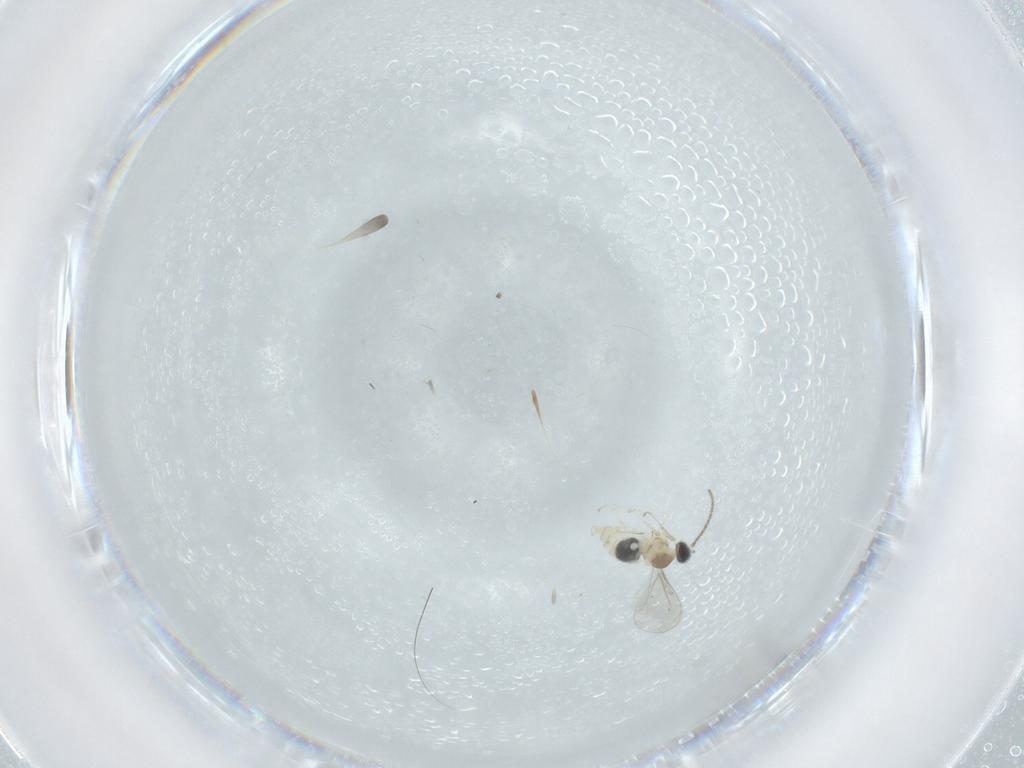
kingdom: Animalia
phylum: Arthropoda
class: Insecta
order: Diptera
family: Cecidomyiidae
